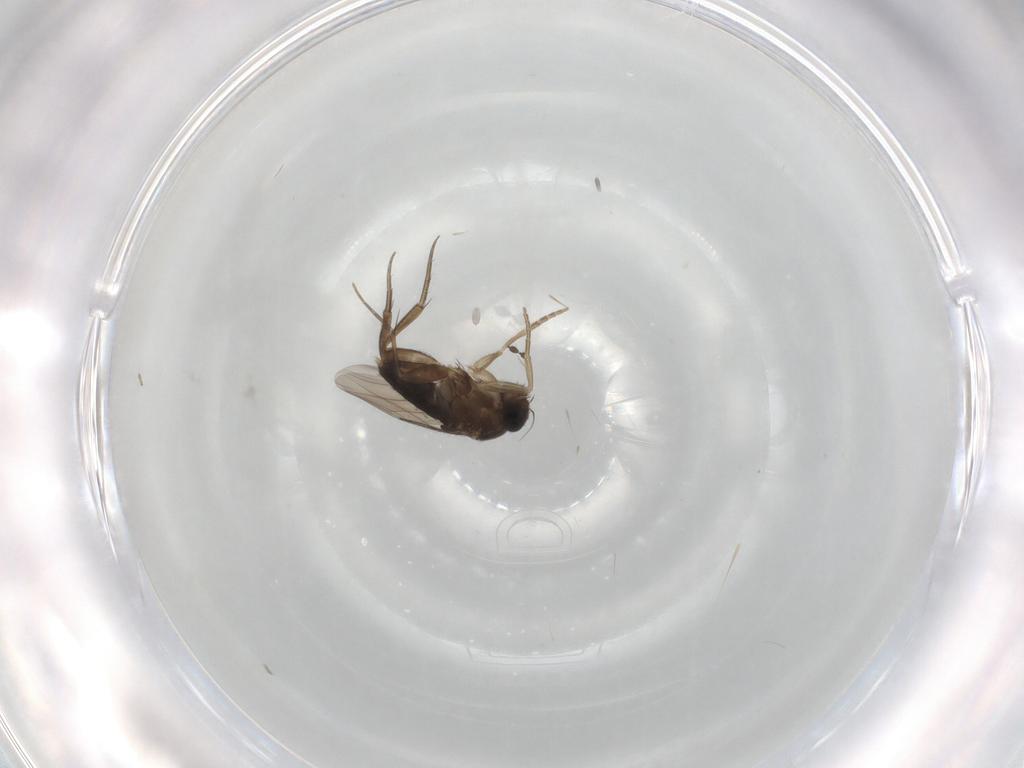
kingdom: Animalia
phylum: Arthropoda
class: Insecta
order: Diptera
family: Phoridae
